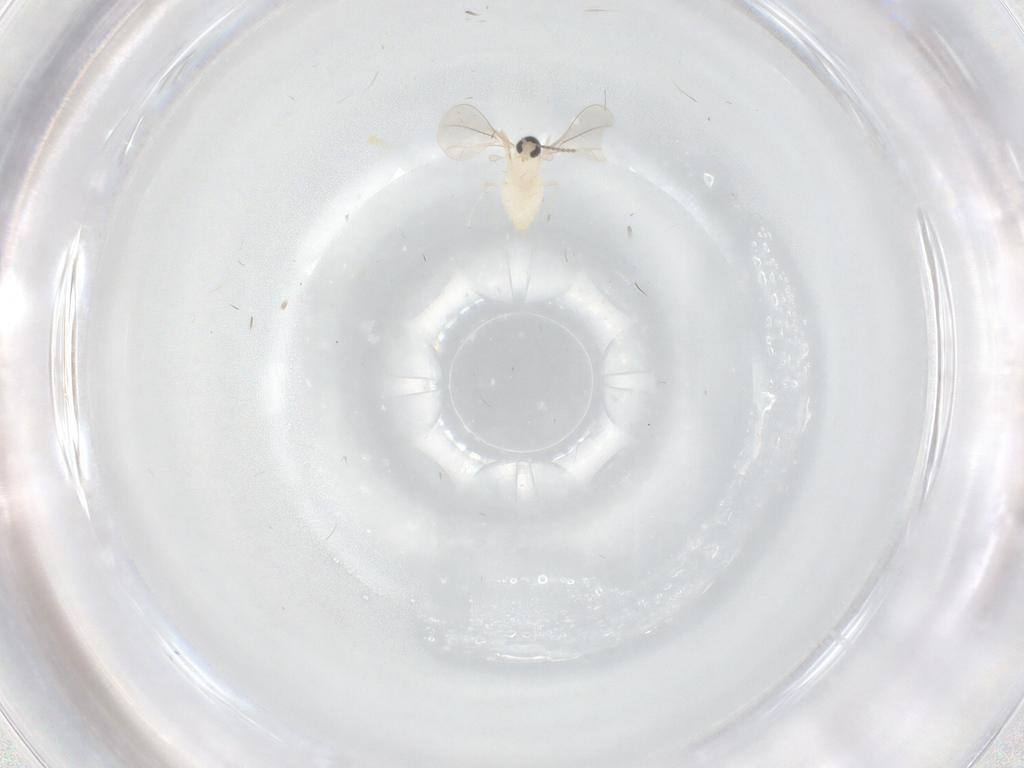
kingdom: Animalia
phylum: Arthropoda
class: Insecta
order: Diptera
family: Cecidomyiidae
